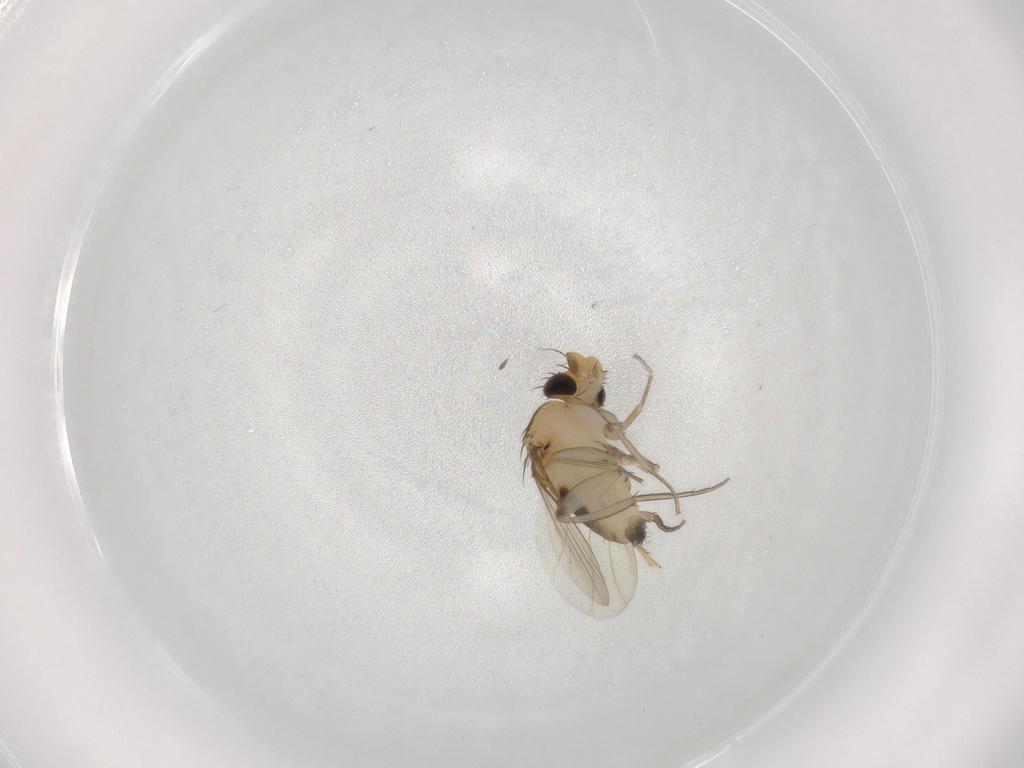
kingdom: Animalia
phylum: Arthropoda
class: Insecta
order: Diptera
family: Phoridae
